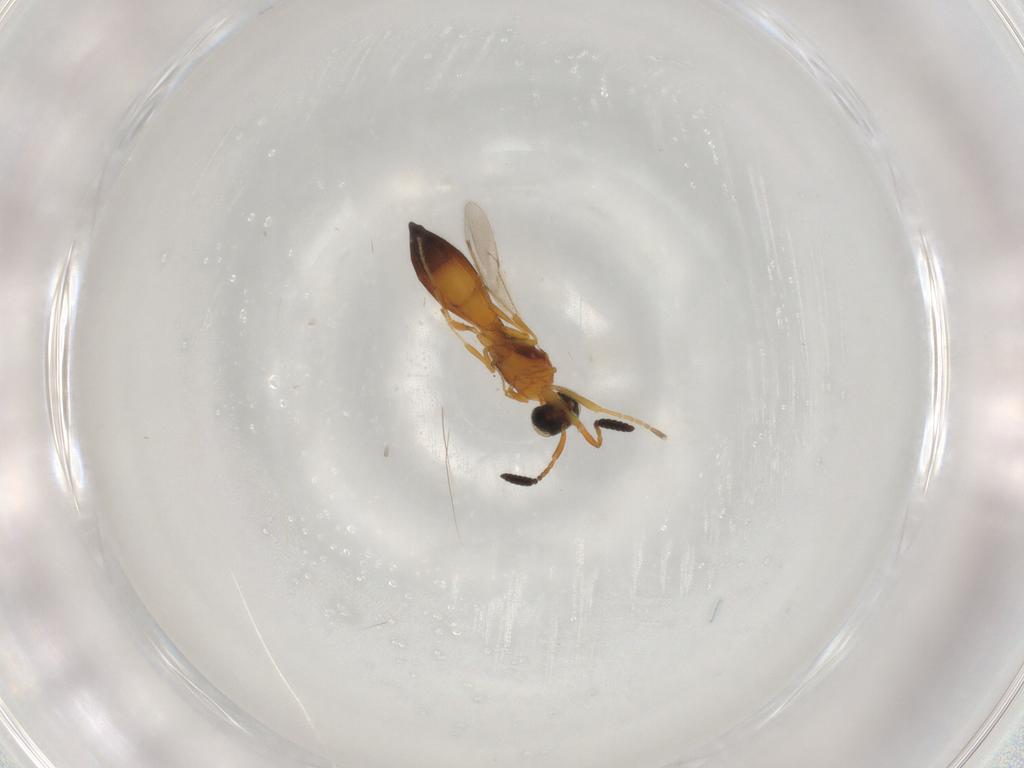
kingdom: Animalia
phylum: Arthropoda
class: Insecta
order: Hymenoptera
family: Braconidae
